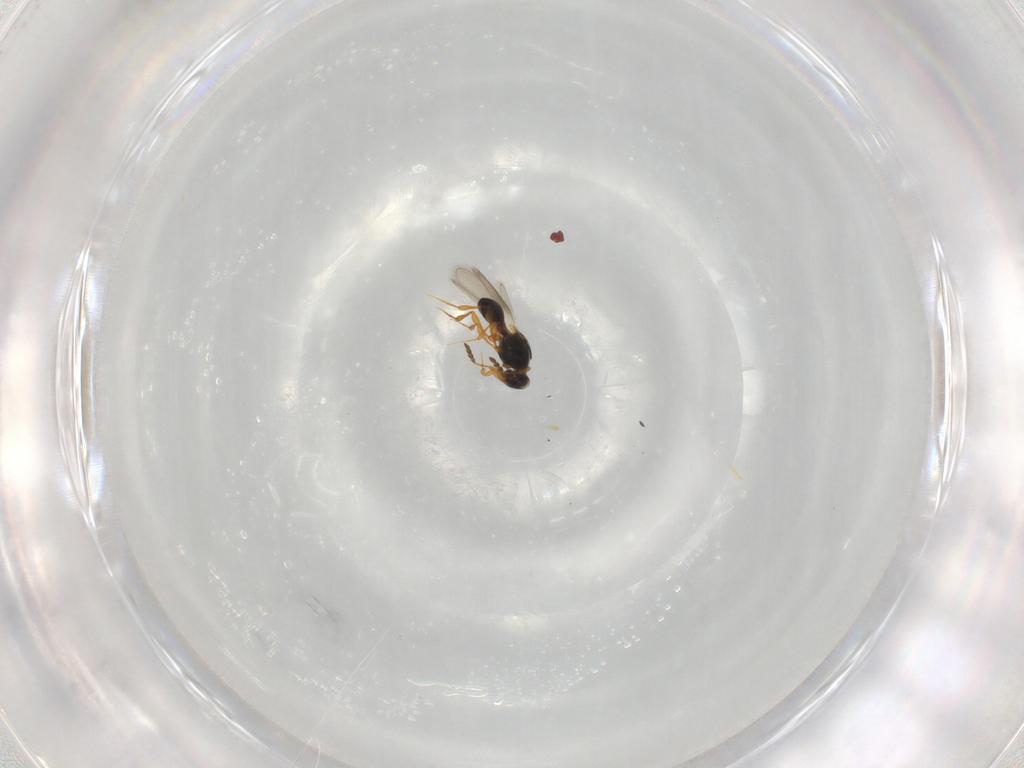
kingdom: Animalia
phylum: Arthropoda
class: Insecta
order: Hymenoptera
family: Platygastridae
